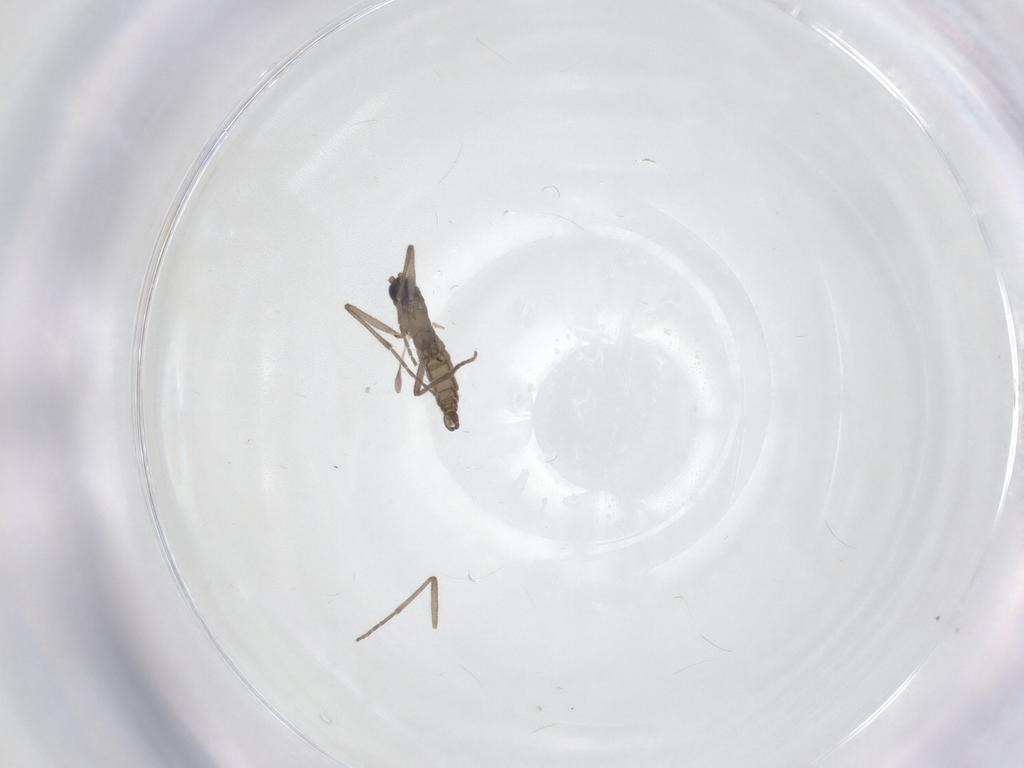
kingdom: Animalia
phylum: Arthropoda
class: Insecta
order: Diptera
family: Sciaridae
